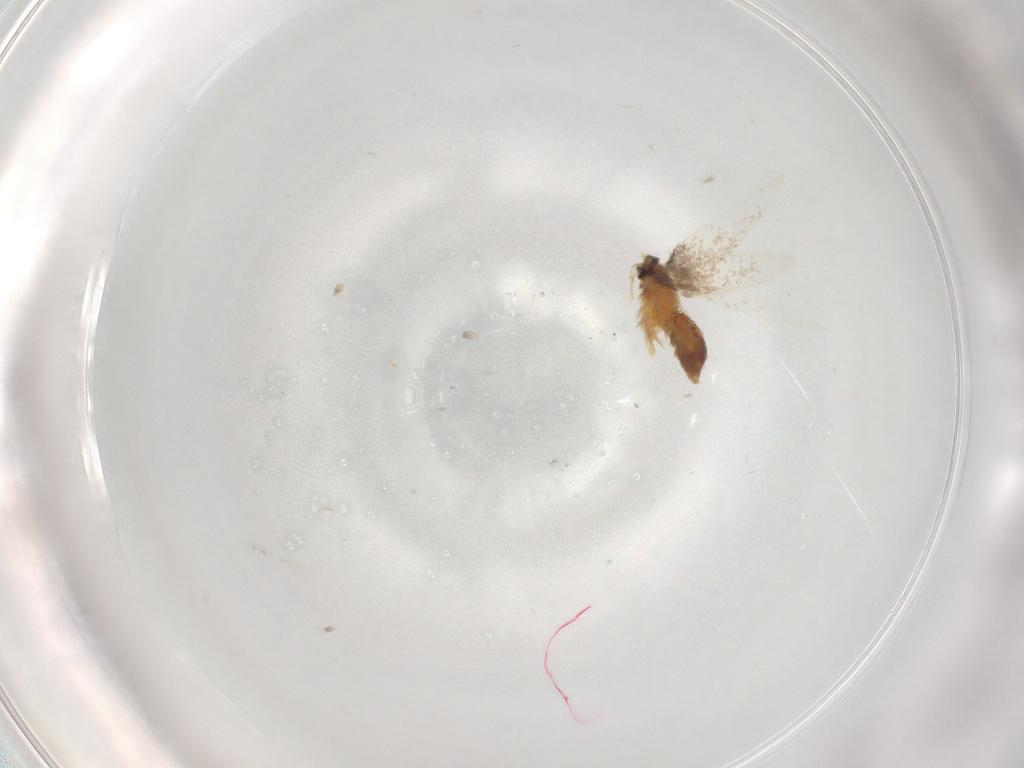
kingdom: Animalia
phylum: Arthropoda
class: Insecta
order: Lepidoptera
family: Nepticulidae
